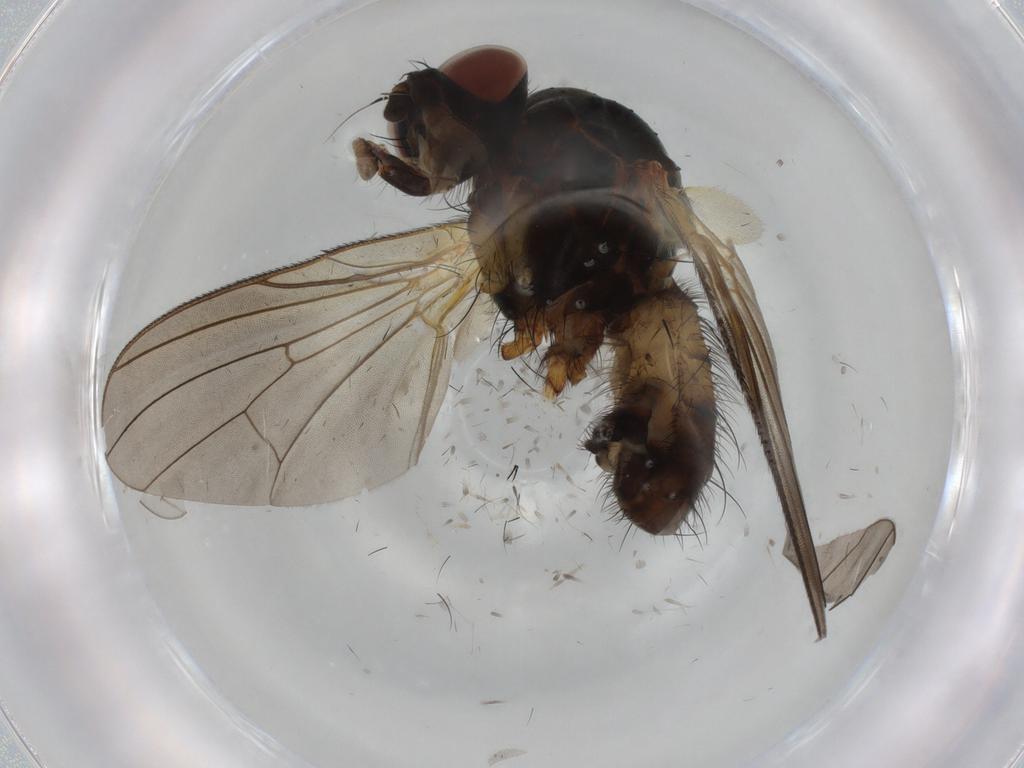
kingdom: Animalia
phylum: Arthropoda
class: Insecta
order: Diptera
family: Anthomyiidae
